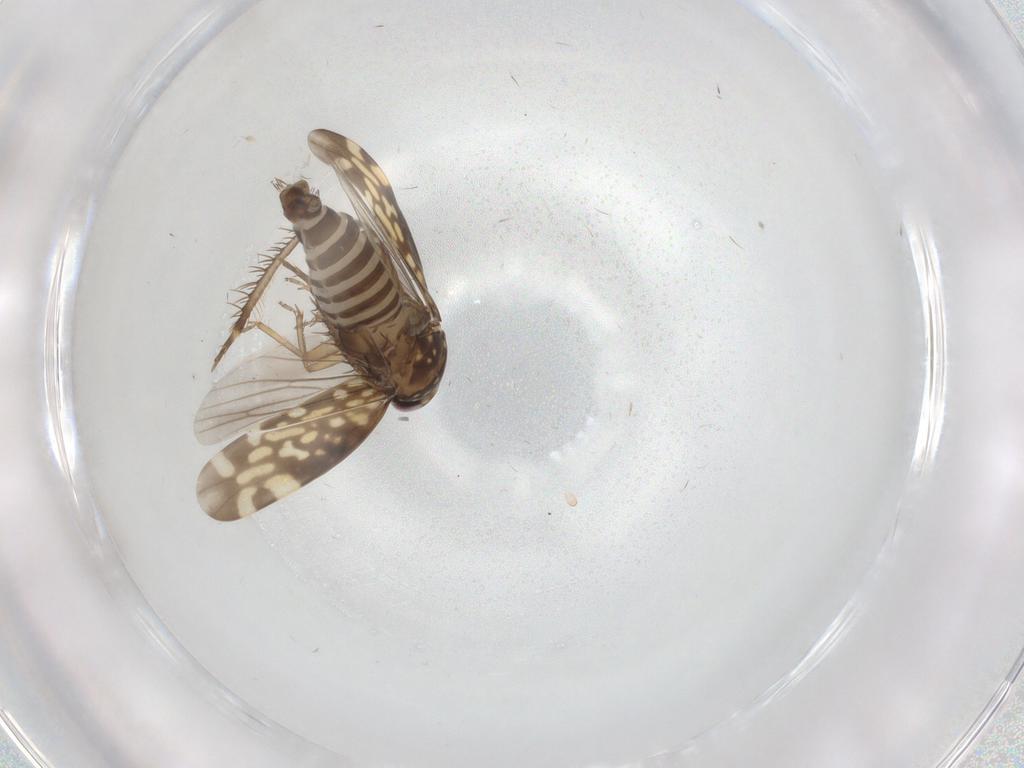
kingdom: Animalia
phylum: Arthropoda
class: Insecta
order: Hemiptera
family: Cicadellidae
